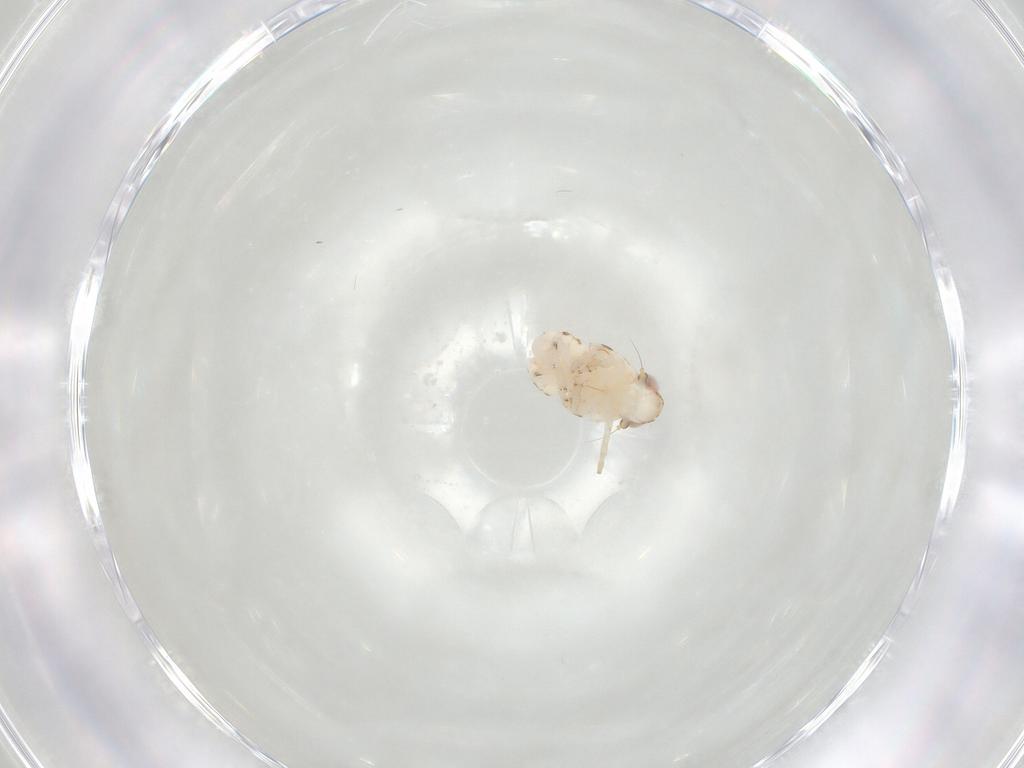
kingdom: Animalia
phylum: Arthropoda
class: Insecta
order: Hemiptera
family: Nogodinidae
